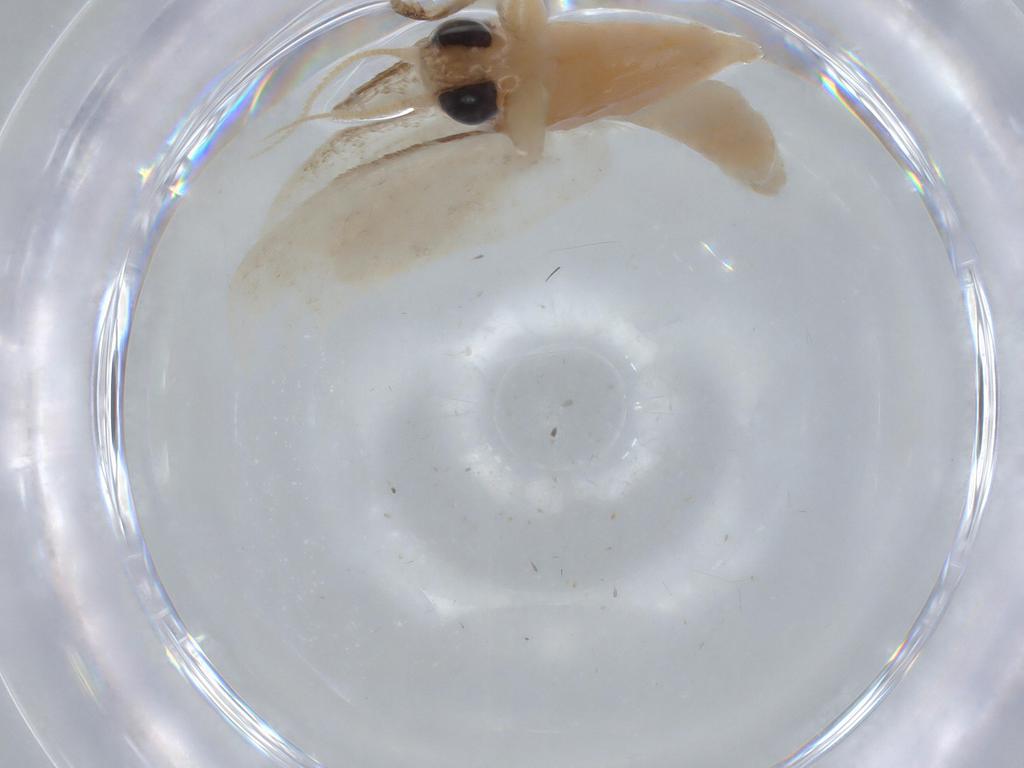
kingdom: Animalia
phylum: Arthropoda
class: Insecta
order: Lepidoptera
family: Crambidae
